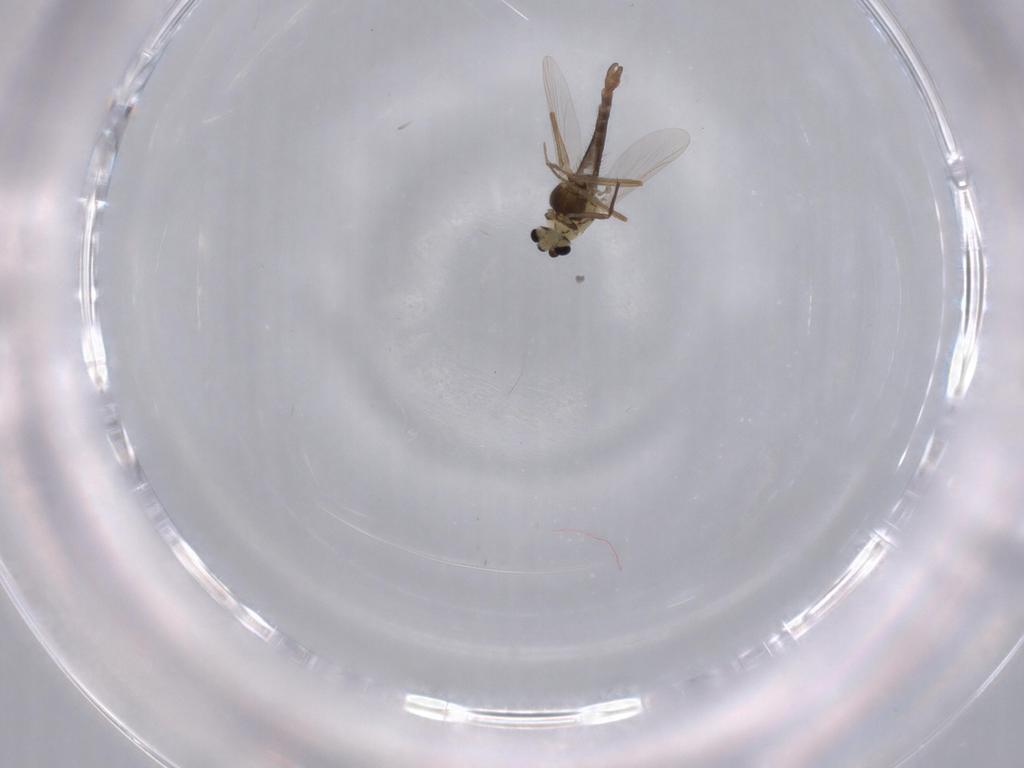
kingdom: Animalia
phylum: Arthropoda
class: Insecta
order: Diptera
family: Chironomidae
